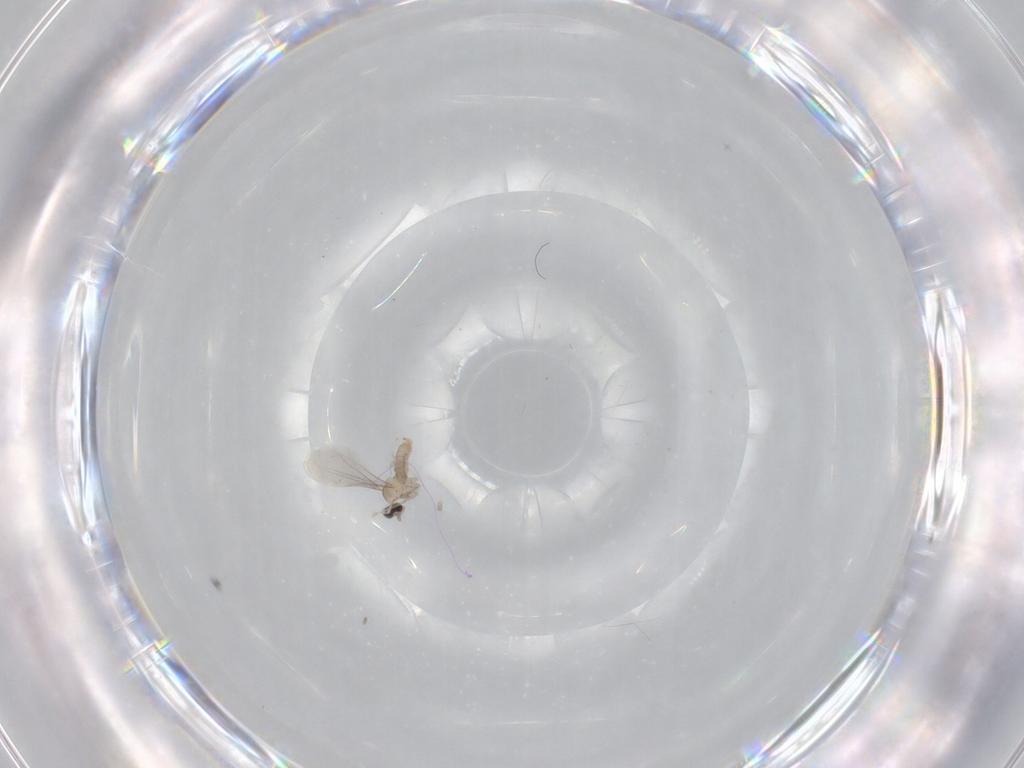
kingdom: Animalia
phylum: Arthropoda
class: Insecta
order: Diptera
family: Cecidomyiidae
